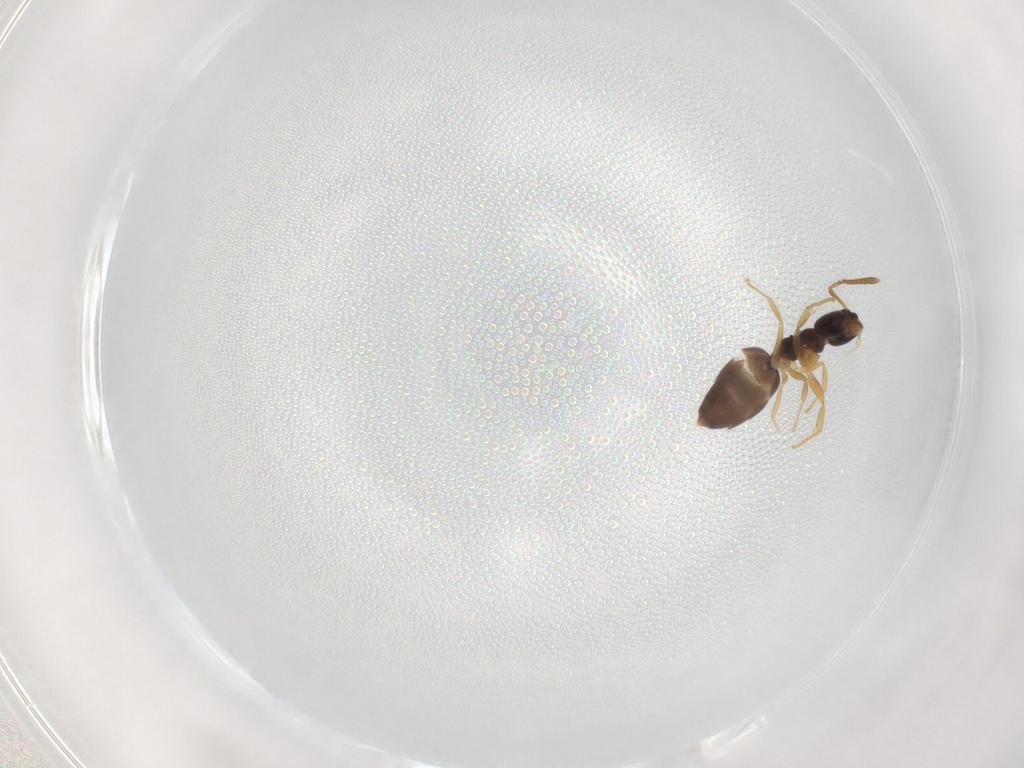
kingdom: Animalia
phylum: Arthropoda
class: Insecta
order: Hymenoptera
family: Formicidae
